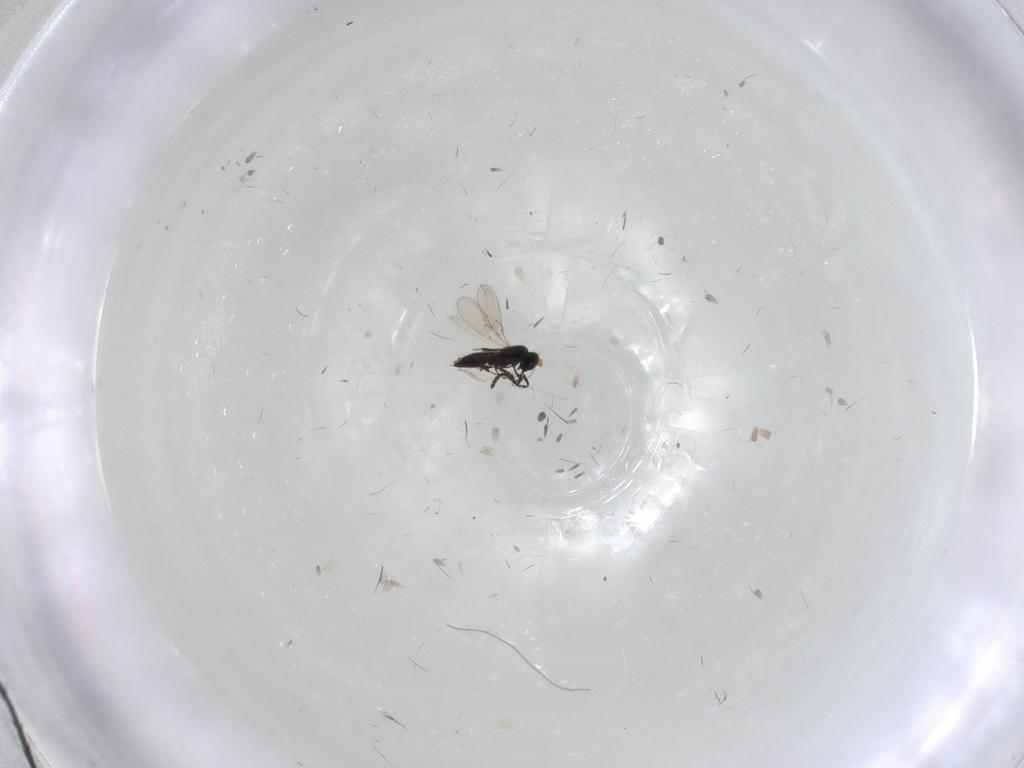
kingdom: Animalia
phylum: Arthropoda
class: Insecta
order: Hymenoptera
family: Scelionidae
